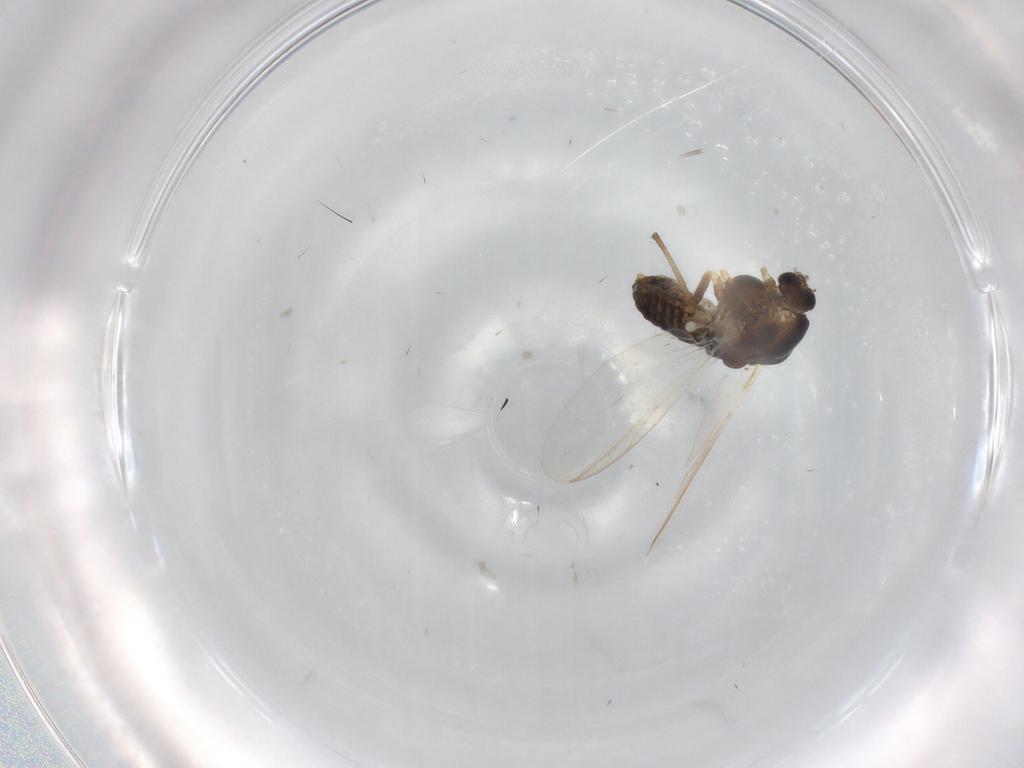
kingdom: Animalia
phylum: Arthropoda
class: Insecta
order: Diptera
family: Chironomidae
